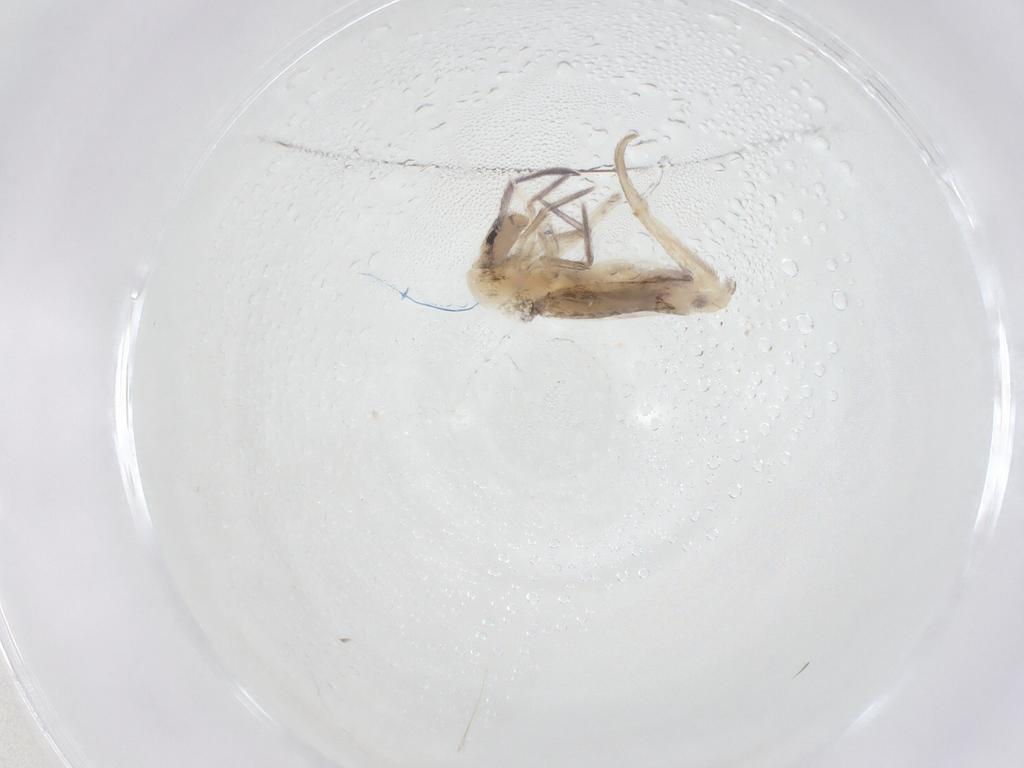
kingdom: Animalia
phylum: Arthropoda
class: Collembola
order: Entomobryomorpha
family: Entomobryidae
